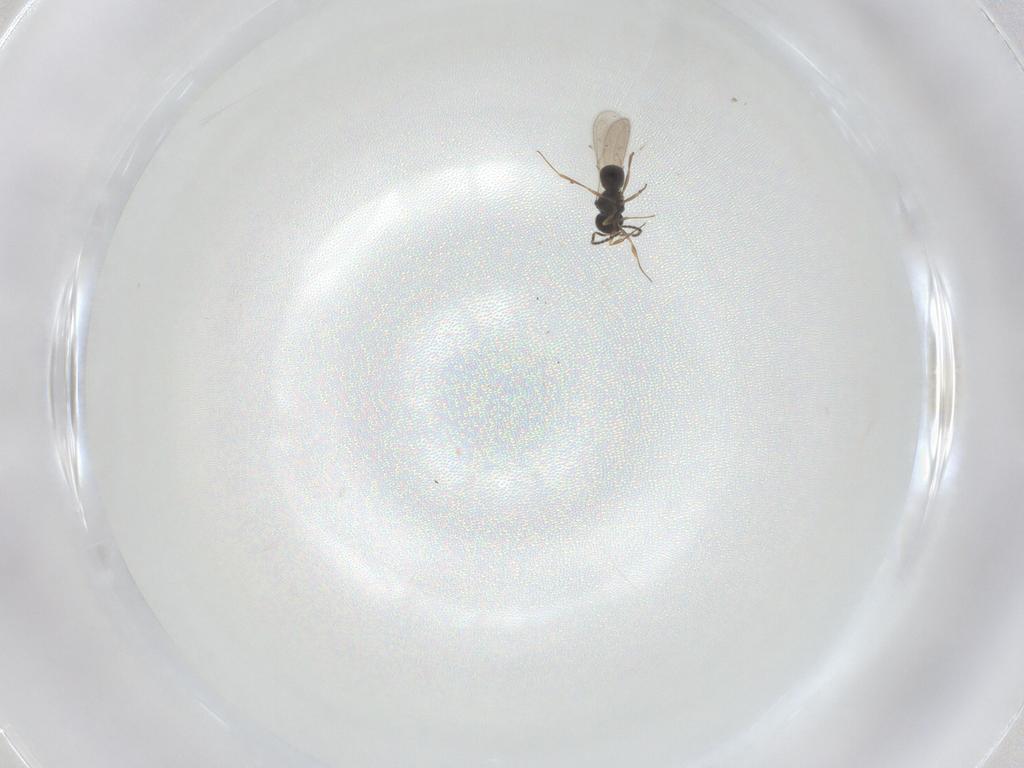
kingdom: Animalia
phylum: Arthropoda
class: Insecta
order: Hymenoptera
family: Scelionidae
